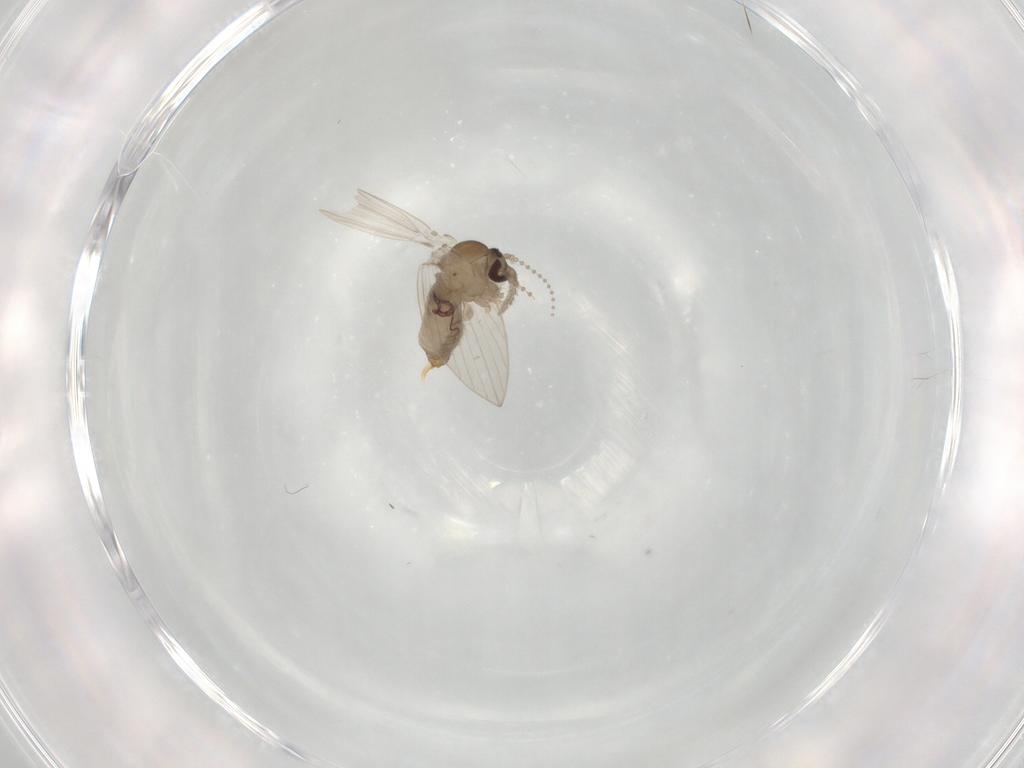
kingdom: Animalia
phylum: Arthropoda
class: Insecta
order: Diptera
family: Psychodidae
